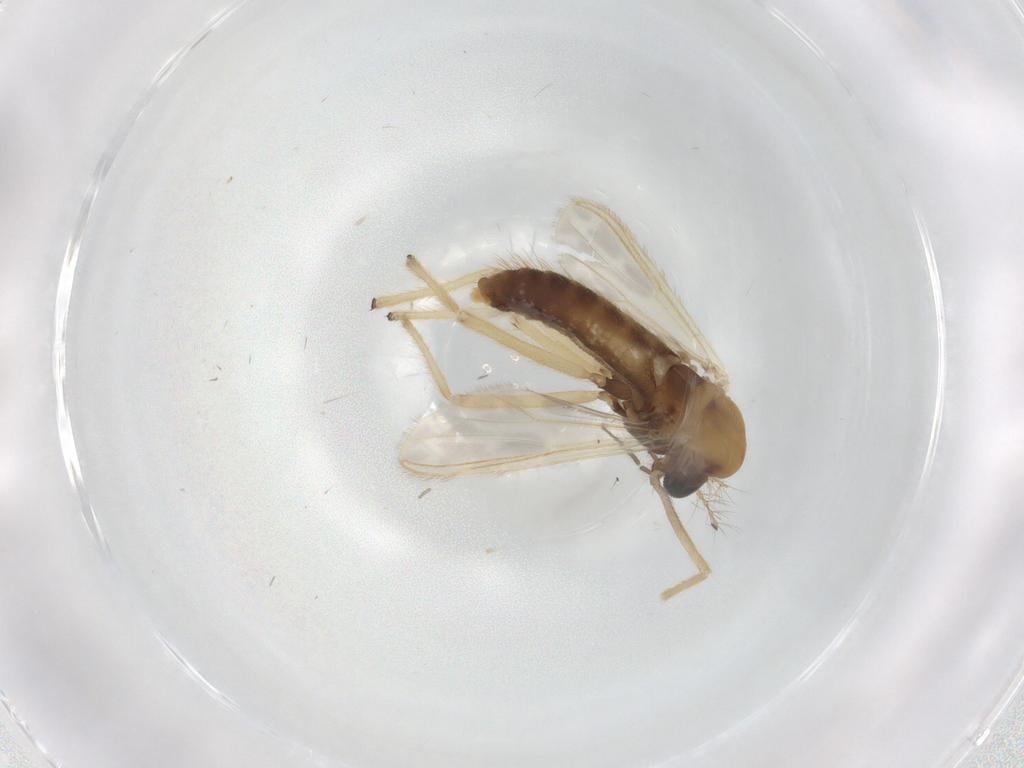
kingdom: Animalia
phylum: Arthropoda
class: Insecta
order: Diptera
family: Chironomidae
